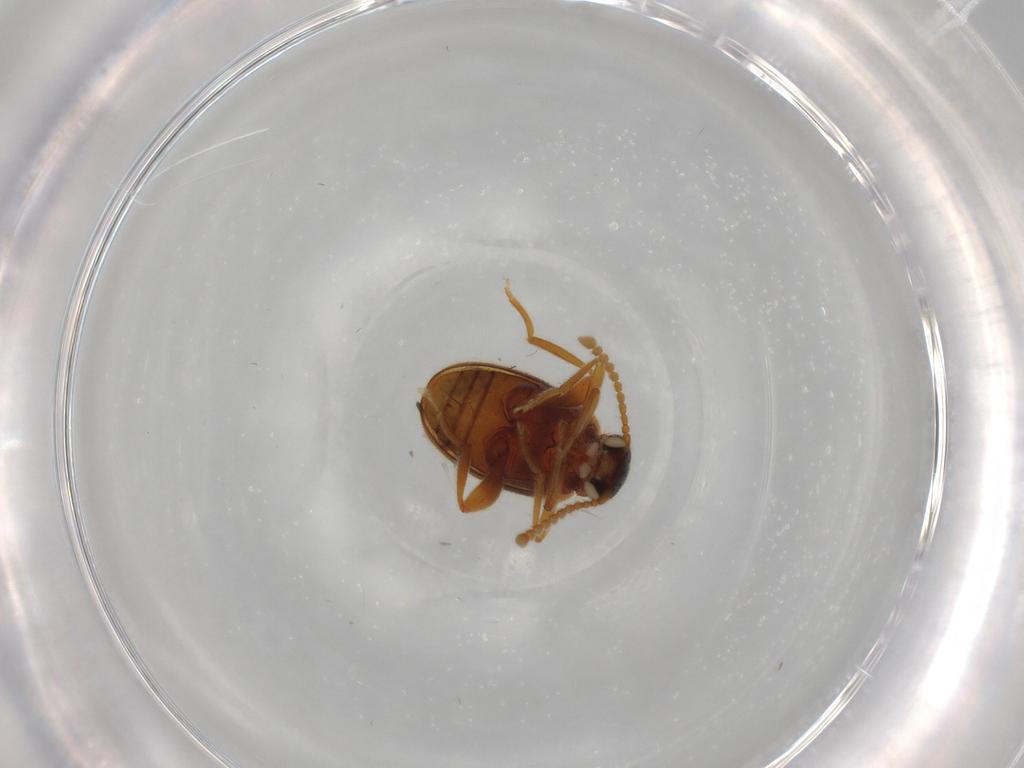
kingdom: Animalia
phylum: Arthropoda
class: Insecta
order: Coleoptera
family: Aderidae
